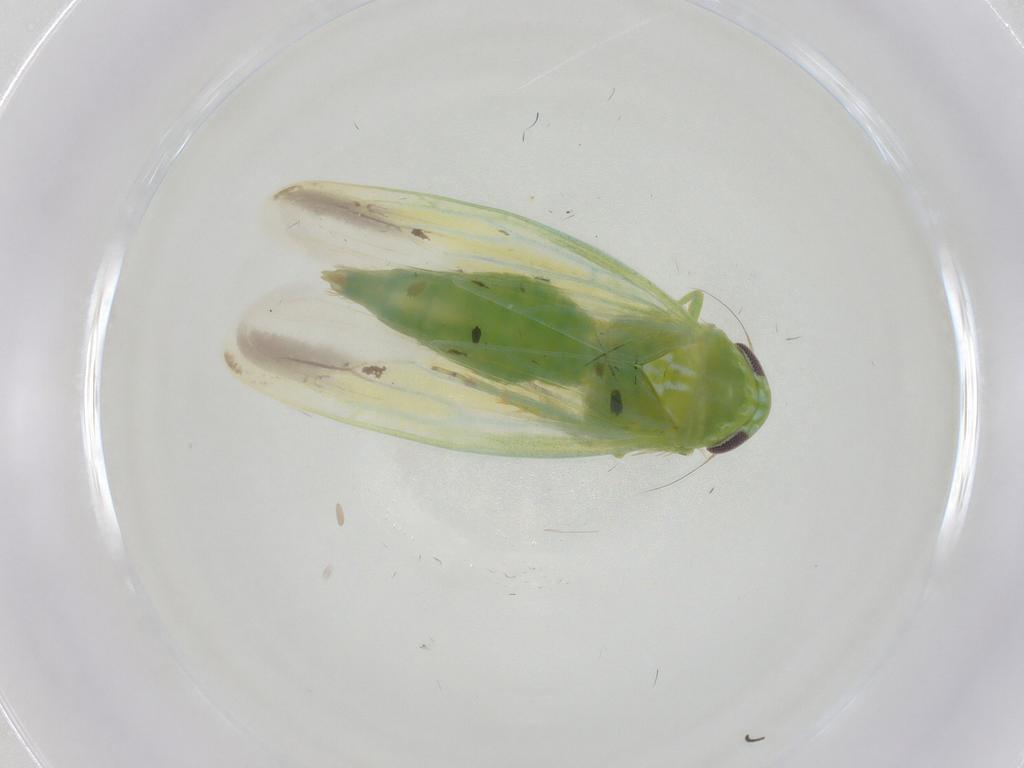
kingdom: Animalia
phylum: Arthropoda
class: Insecta
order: Hemiptera
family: Cicadellidae
